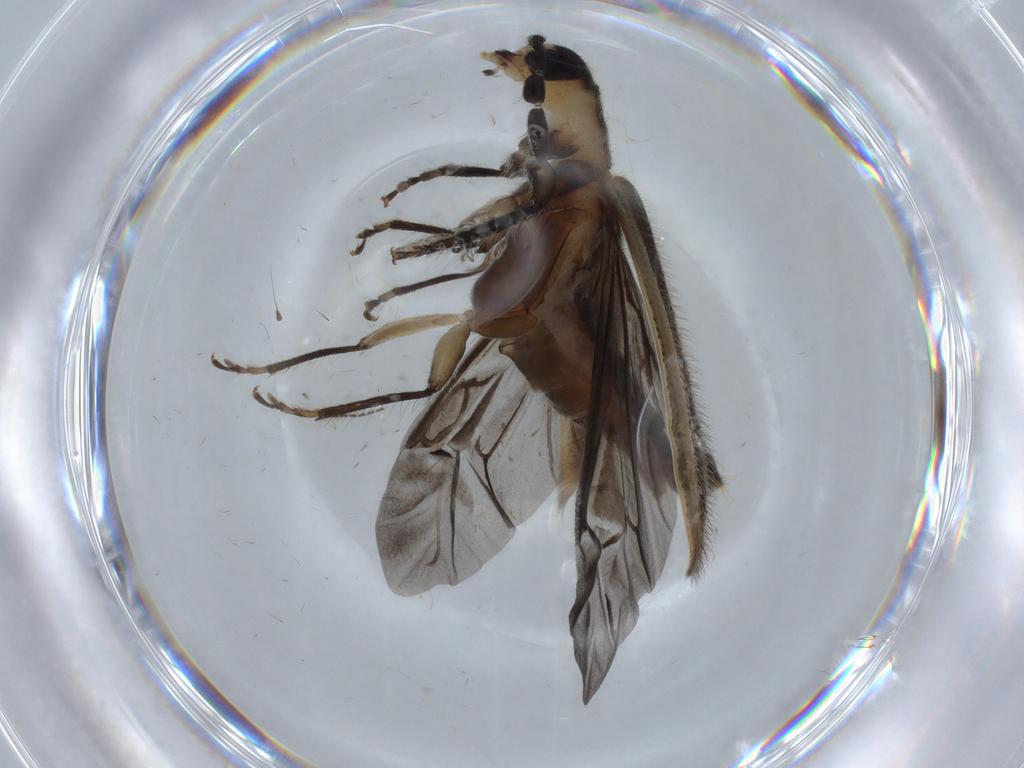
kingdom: Animalia
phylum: Arthropoda
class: Insecta
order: Coleoptera
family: Cleridae
